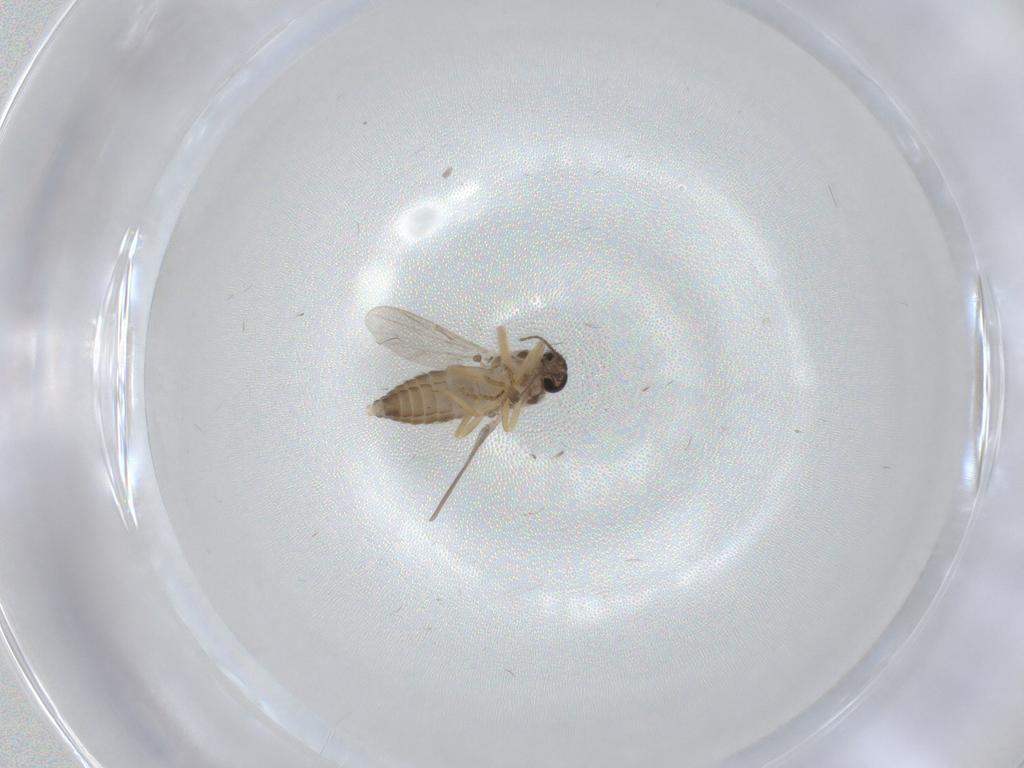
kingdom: Animalia
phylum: Arthropoda
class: Insecta
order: Diptera
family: Ceratopogonidae
